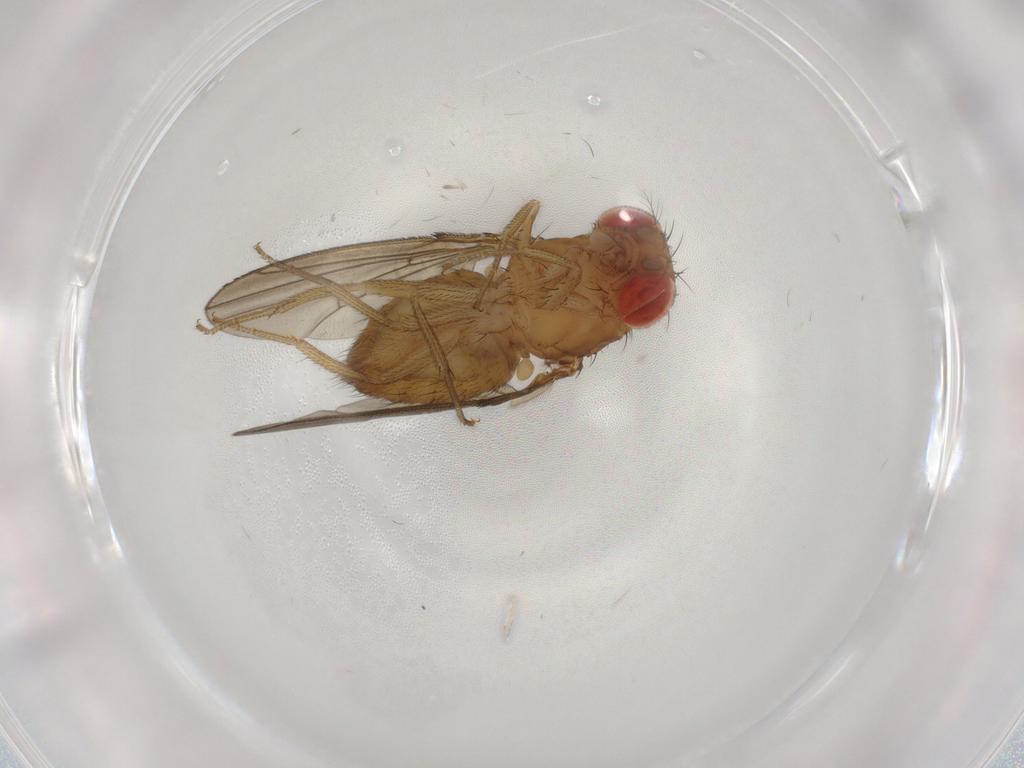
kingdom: Animalia
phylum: Arthropoda
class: Insecta
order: Diptera
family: Drosophilidae
